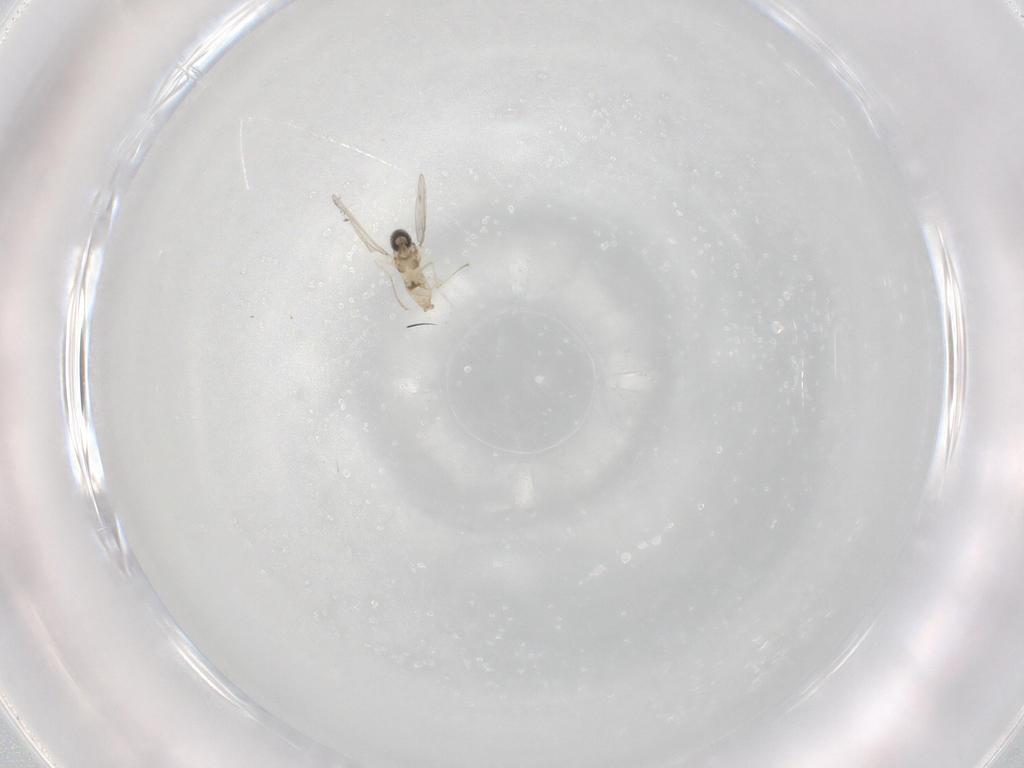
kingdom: Animalia
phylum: Arthropoda
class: Insecta
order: Diptera
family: Cecidomyiidae
